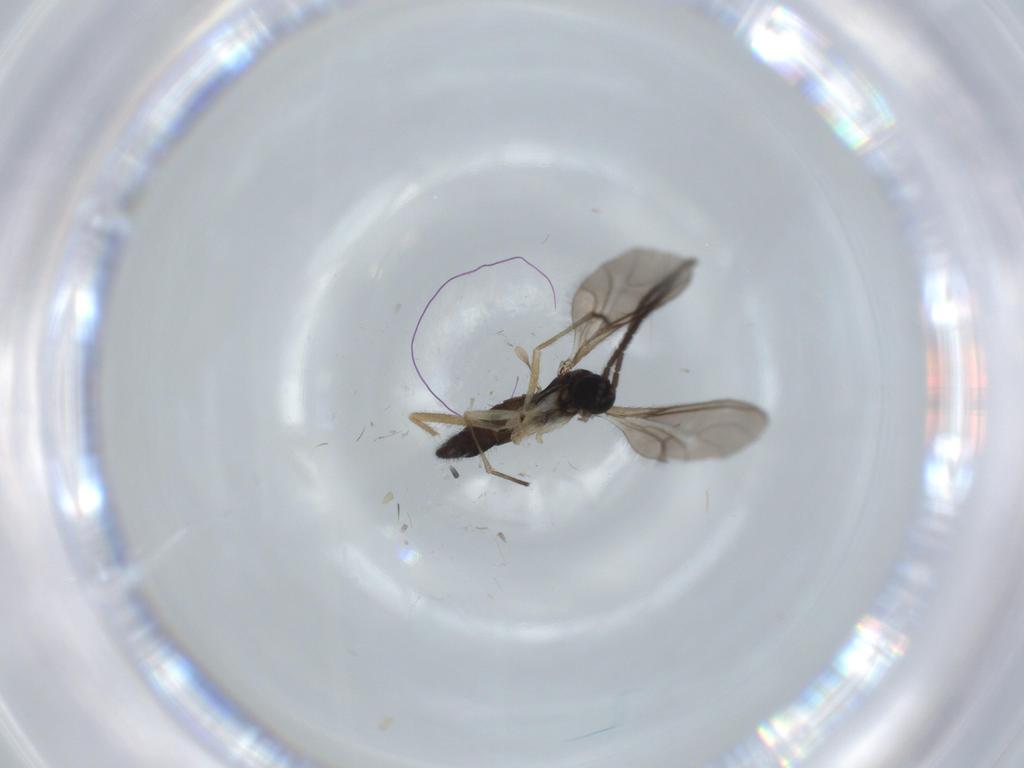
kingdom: Animalia
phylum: Arthropoda
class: Insecta
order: Diptera
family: Sciaridae
